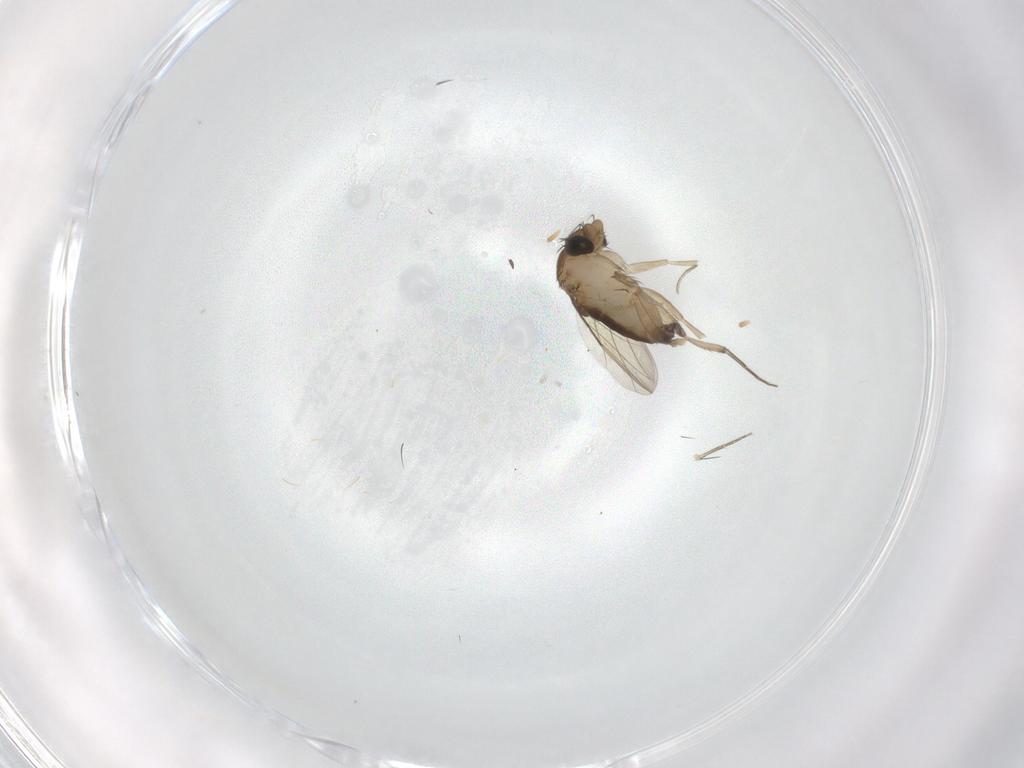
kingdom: Animalia
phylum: Arthropoda
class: Insecta
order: Diptera
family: Phoridae
